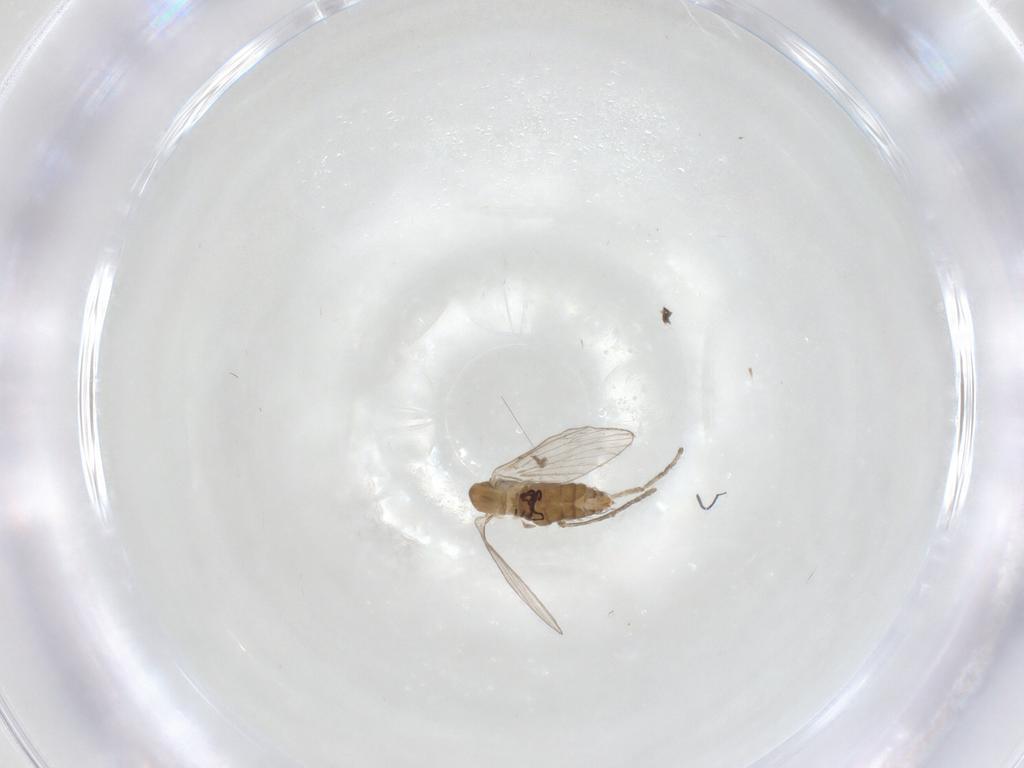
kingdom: Animalia
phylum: Arthropoda
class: Insecta
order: Diptera
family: Psychodidae
